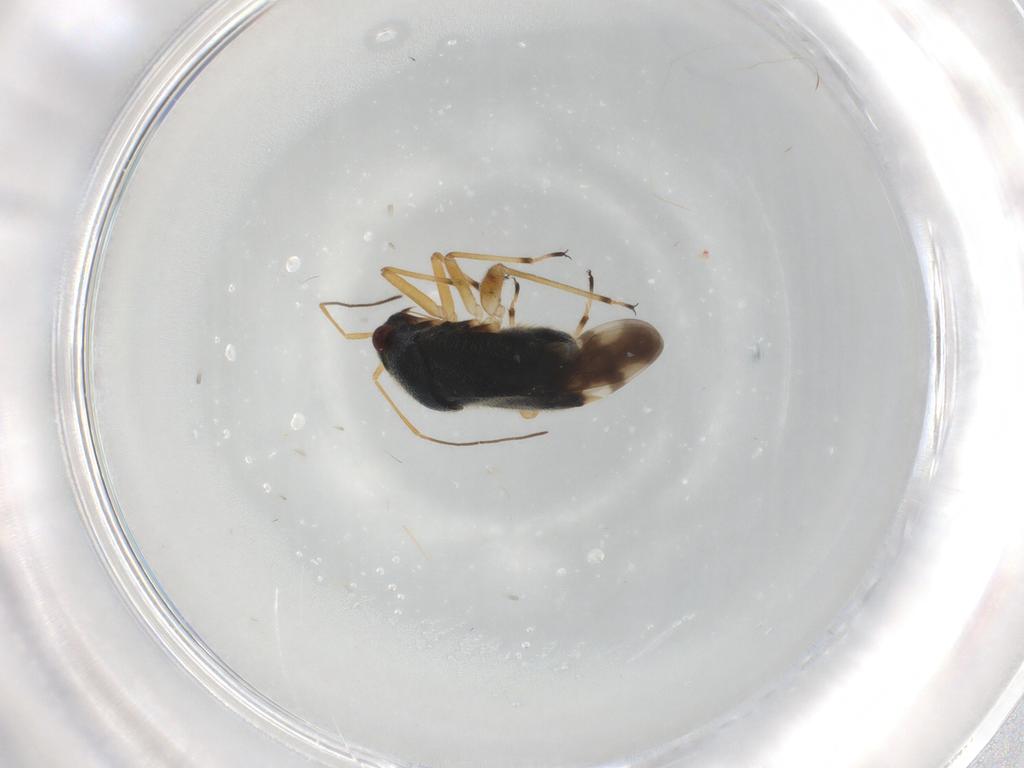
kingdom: Animalia
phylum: Arthropoda
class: Insecta
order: Hemiptera
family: Miridae
